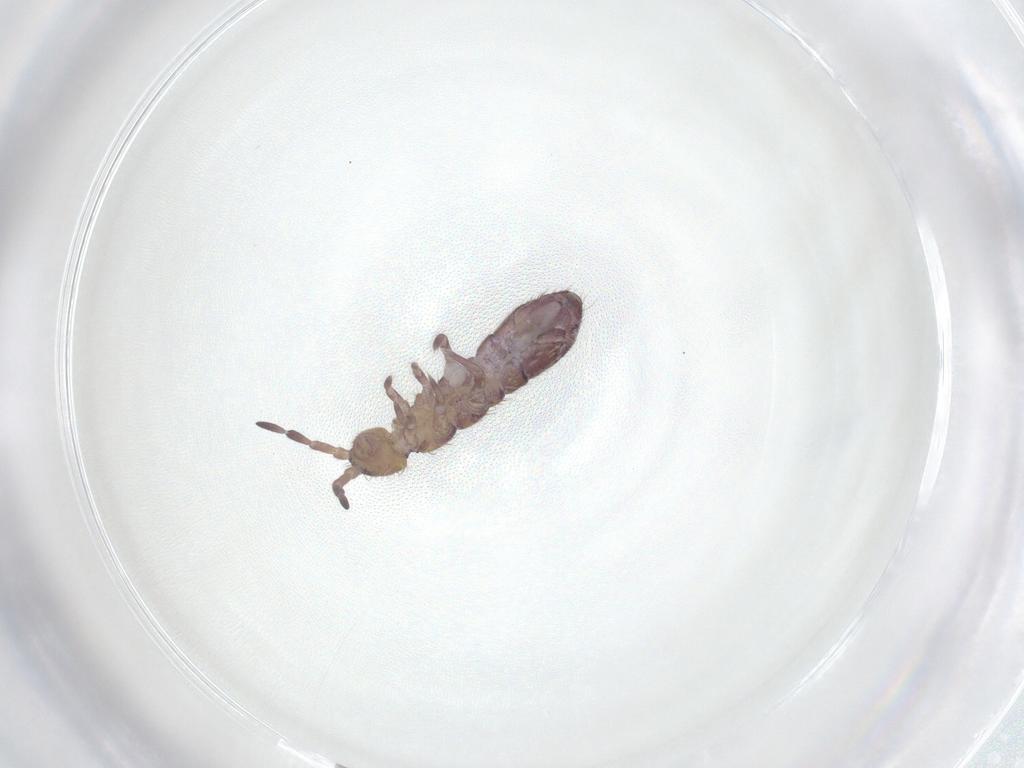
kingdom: Animalia
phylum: Arthropoda
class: Collembola
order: Entomobryomorpha
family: Isotomidae
